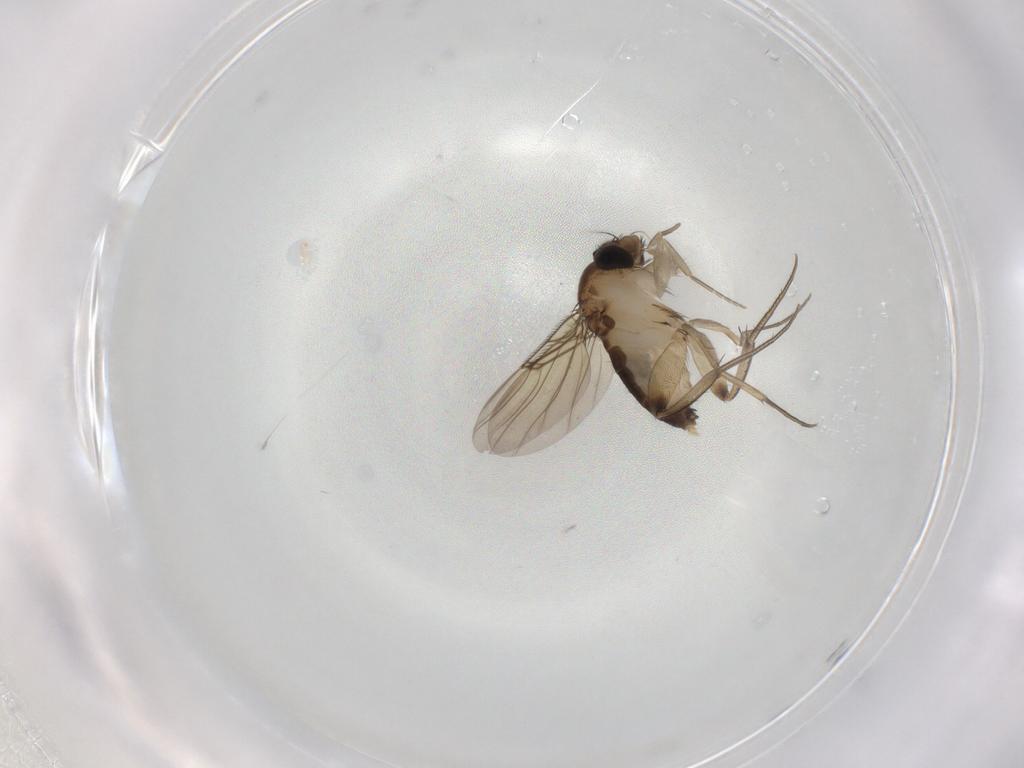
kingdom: Animalia
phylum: Arthropoda
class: Insecta
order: Diptera
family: Phoridae
